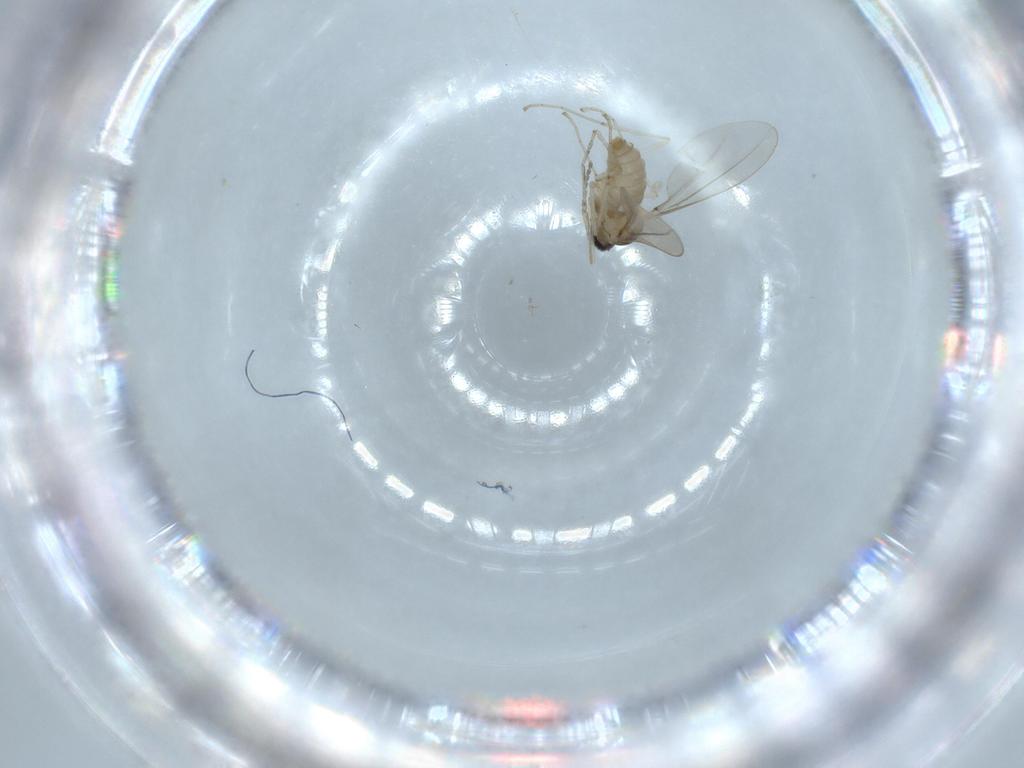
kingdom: Animalia
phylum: Arthropoda
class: Insecta
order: Diptera
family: Cecidomyiidae
